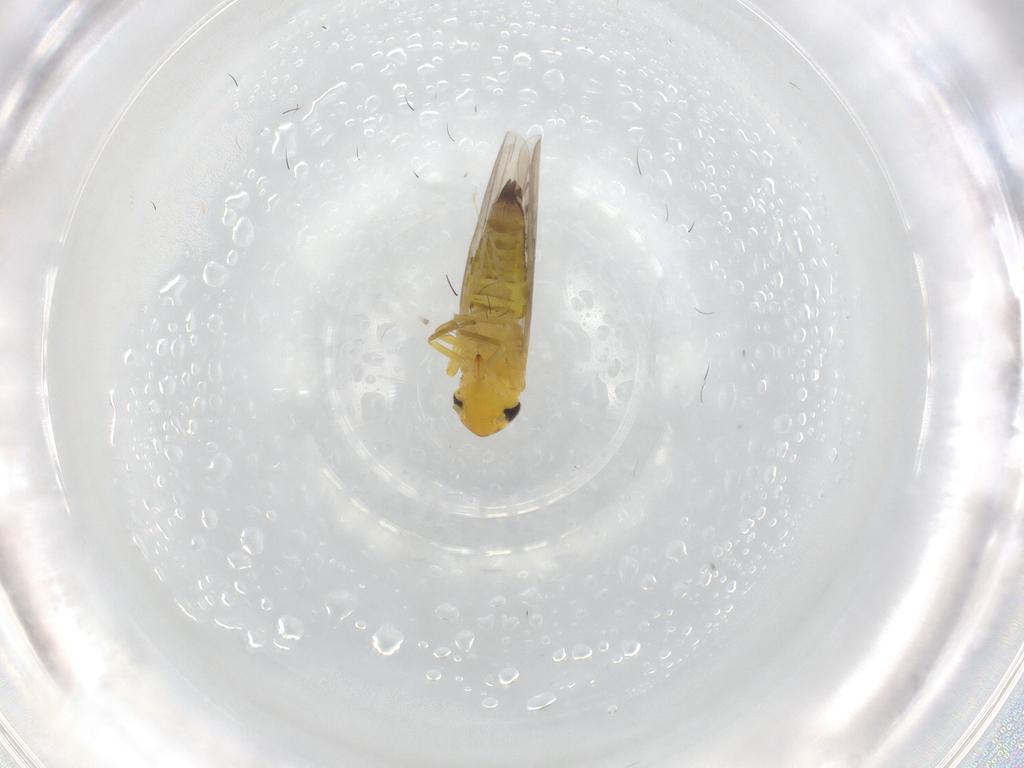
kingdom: Animalia
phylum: Arthropoda
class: Insecta
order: Hemiptera
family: Cicadellidae
